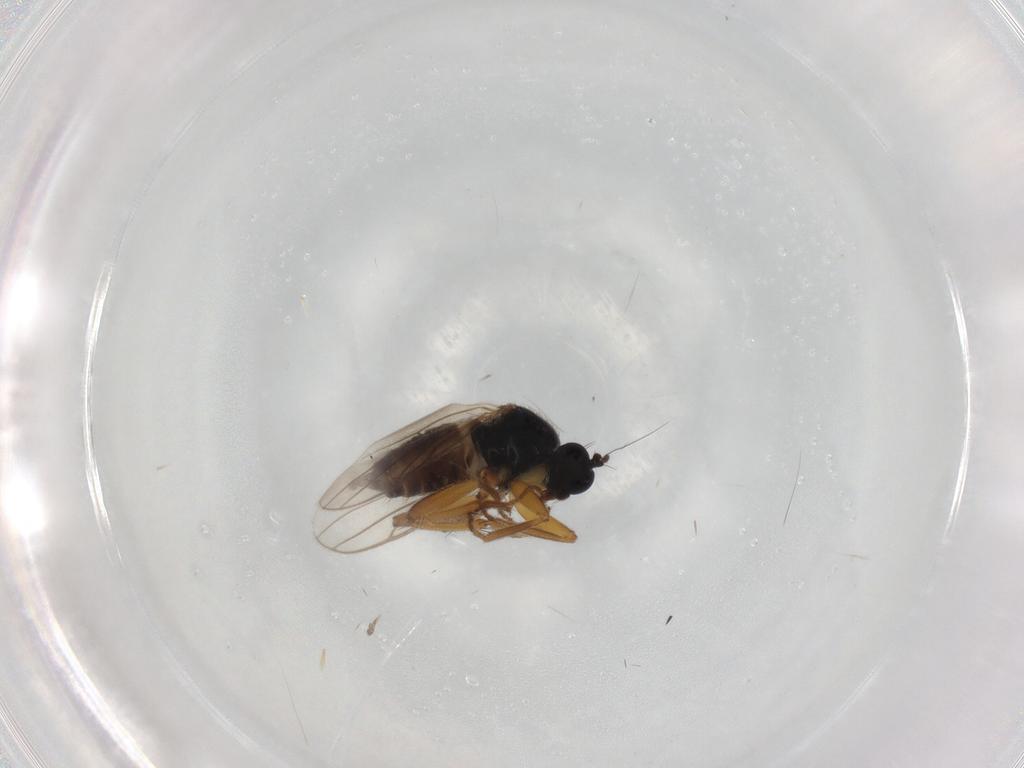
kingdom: Animalia
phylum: Arthropoda
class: Insecta
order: Diptera
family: Hybotidae
